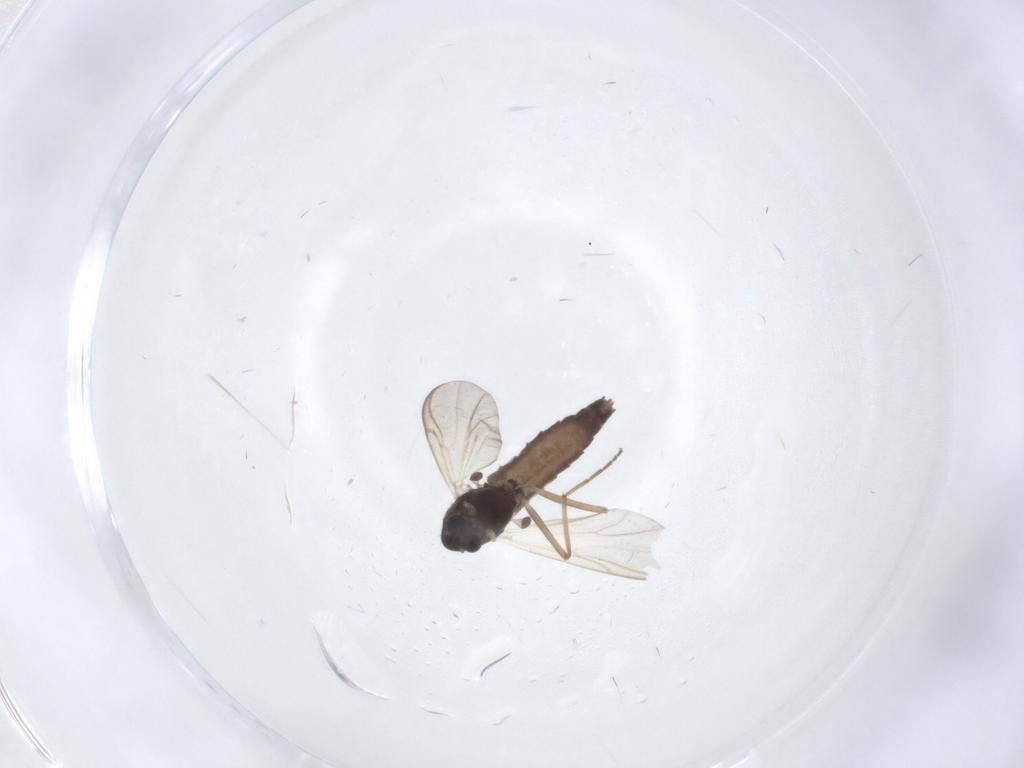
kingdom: Animalia
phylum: Arthropoda
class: Insecta
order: Diptera
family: Chironomidae
